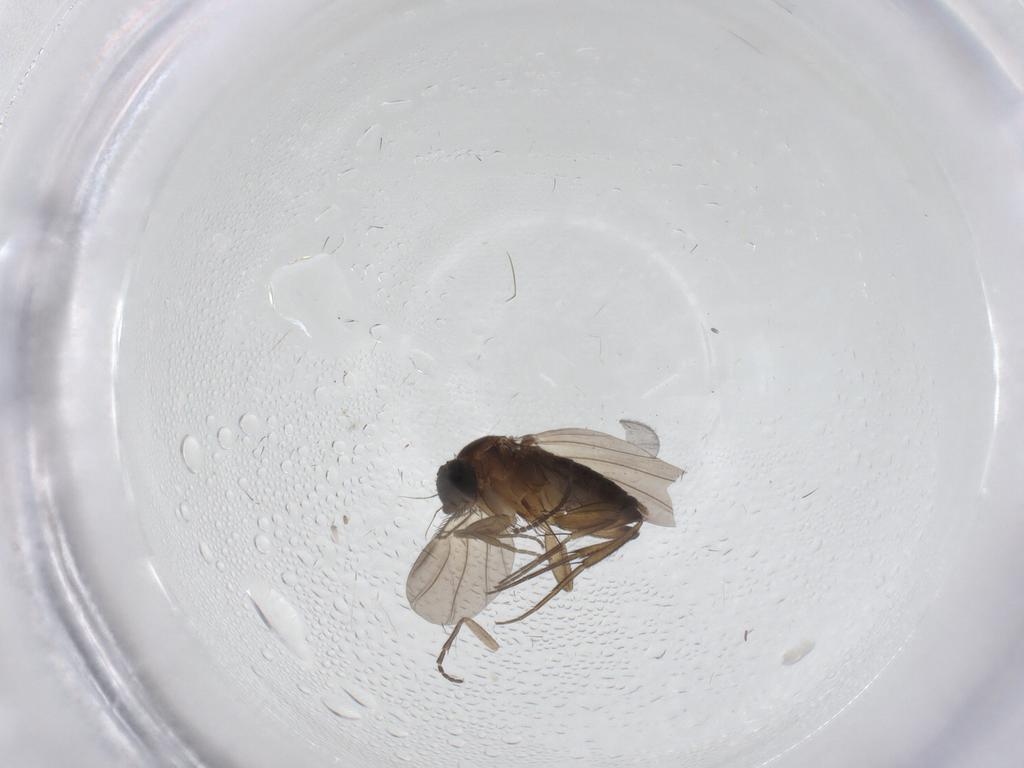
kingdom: Animalia
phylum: Arthropoda
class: Insecta
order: Diptera
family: Phoridae
